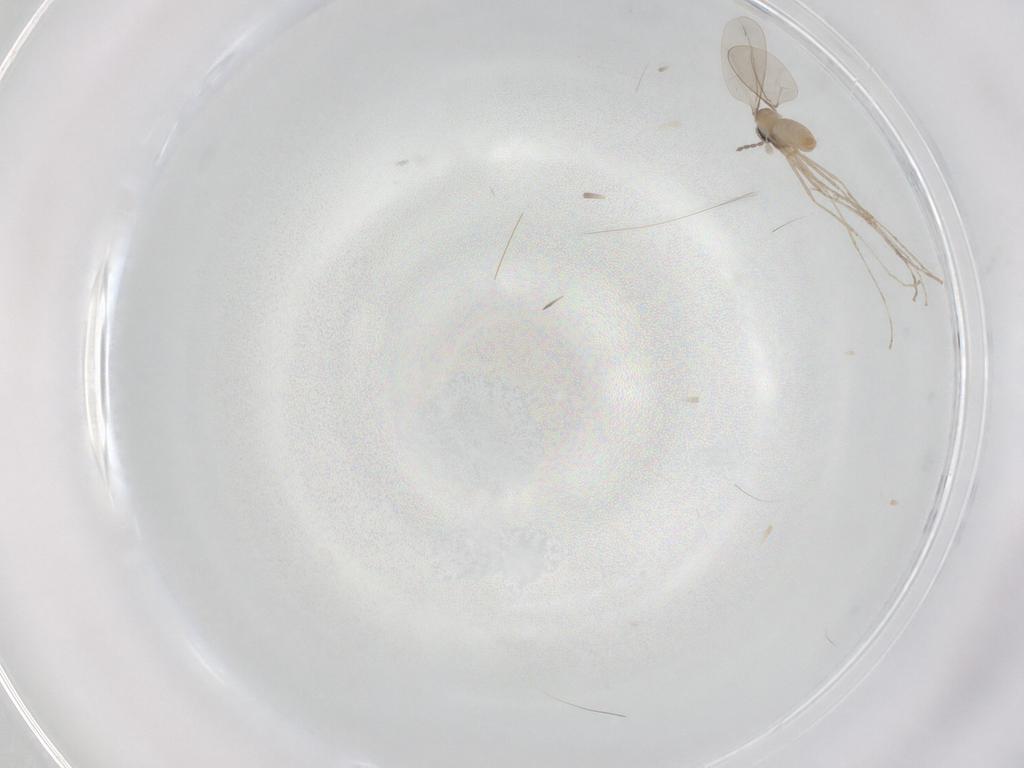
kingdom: Animalia
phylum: Arthropoda
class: Insecta
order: Diptera
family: Cecidomyiidae
